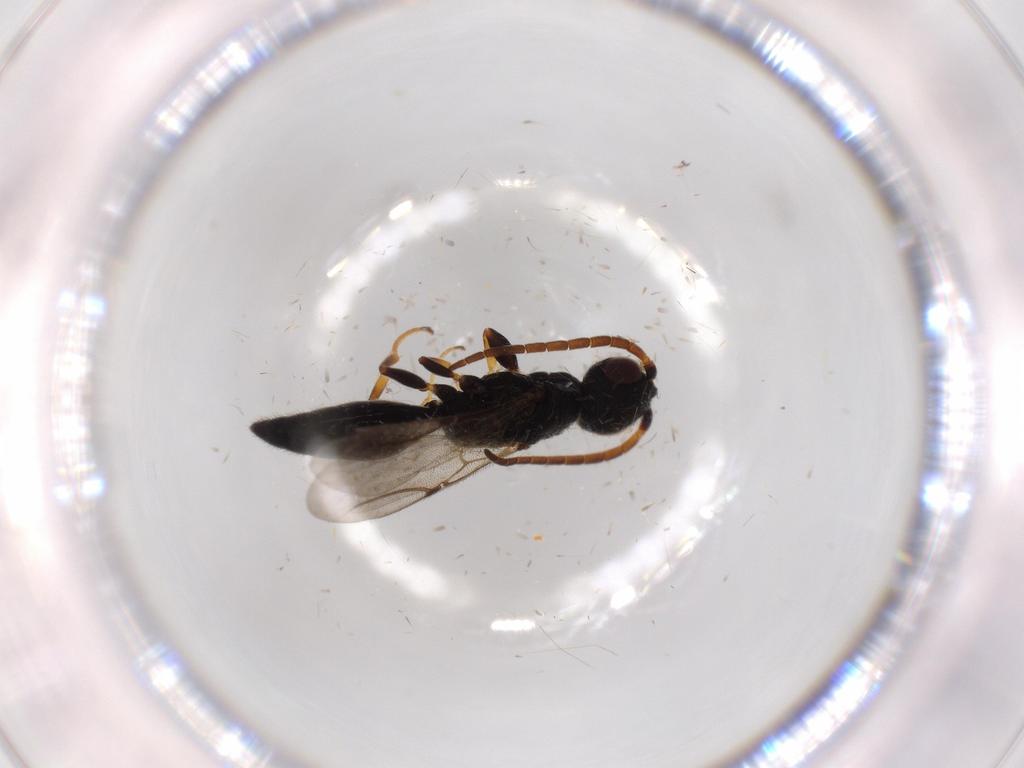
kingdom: Animalia
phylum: Arthropoda
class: Insecta
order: Hymenoptera
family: Bethylidae
